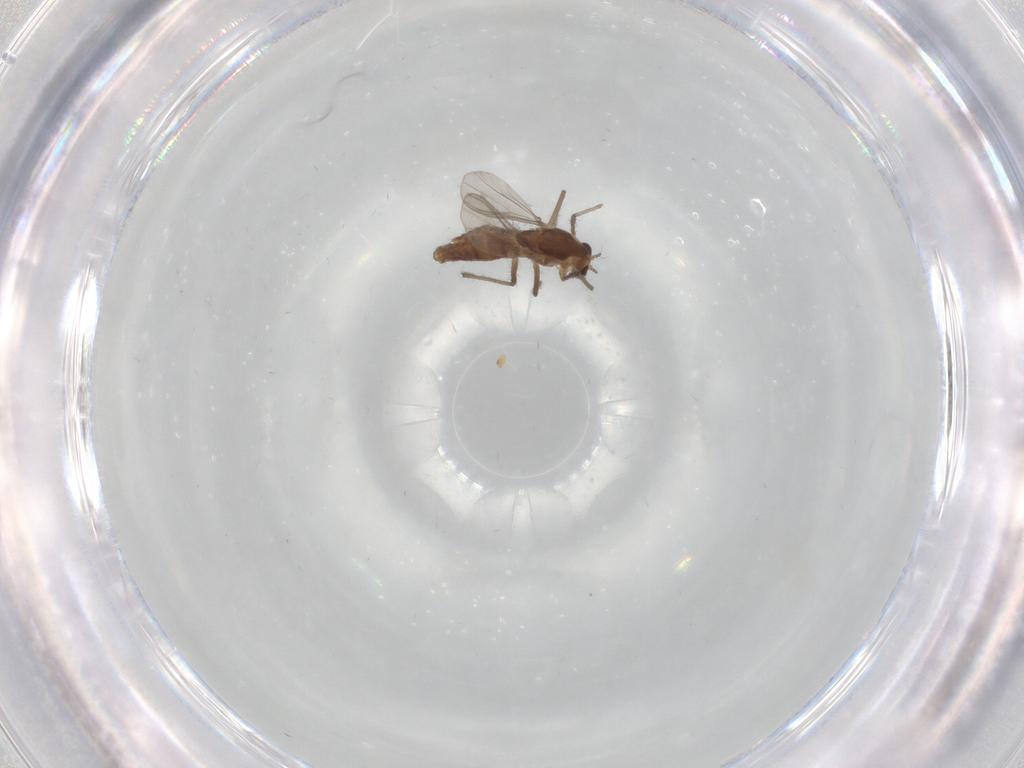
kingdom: Animalia
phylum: Arthropoda
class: Insecta
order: Diptera
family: Chironomidae
